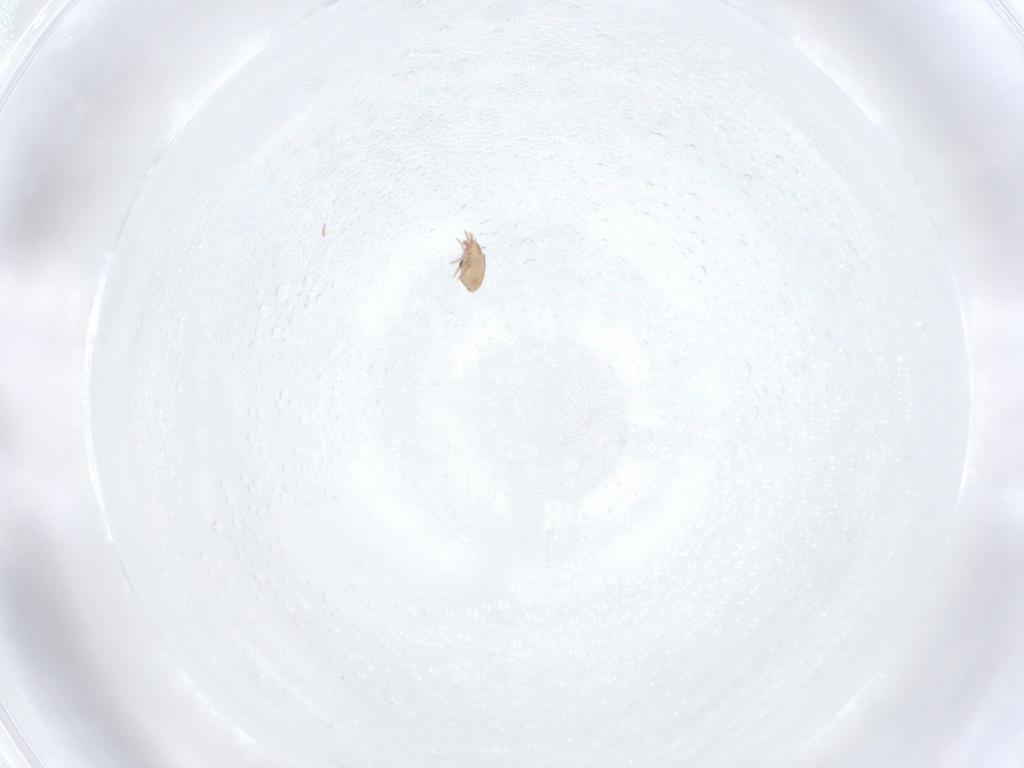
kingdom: Animalia
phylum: Arthropoda
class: Arachnida
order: Sarcoptiformes
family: Phenopelopidae
